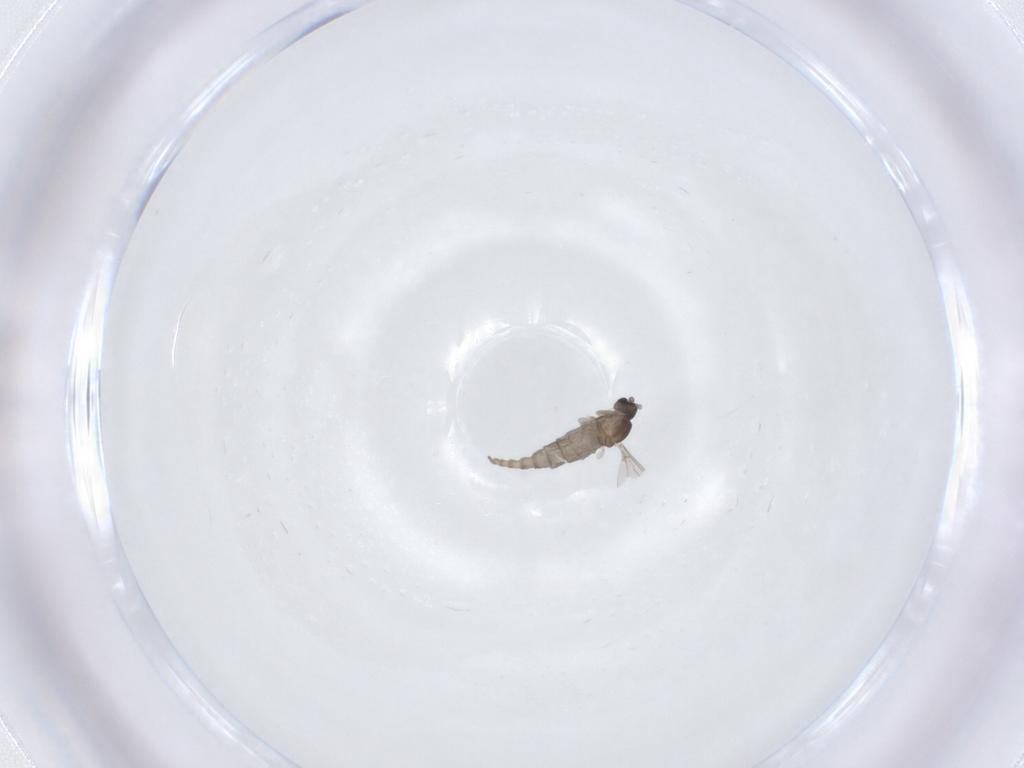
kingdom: Animalia
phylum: Arthropoda
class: Insecta
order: Diptera
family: Cecidomyiidae
